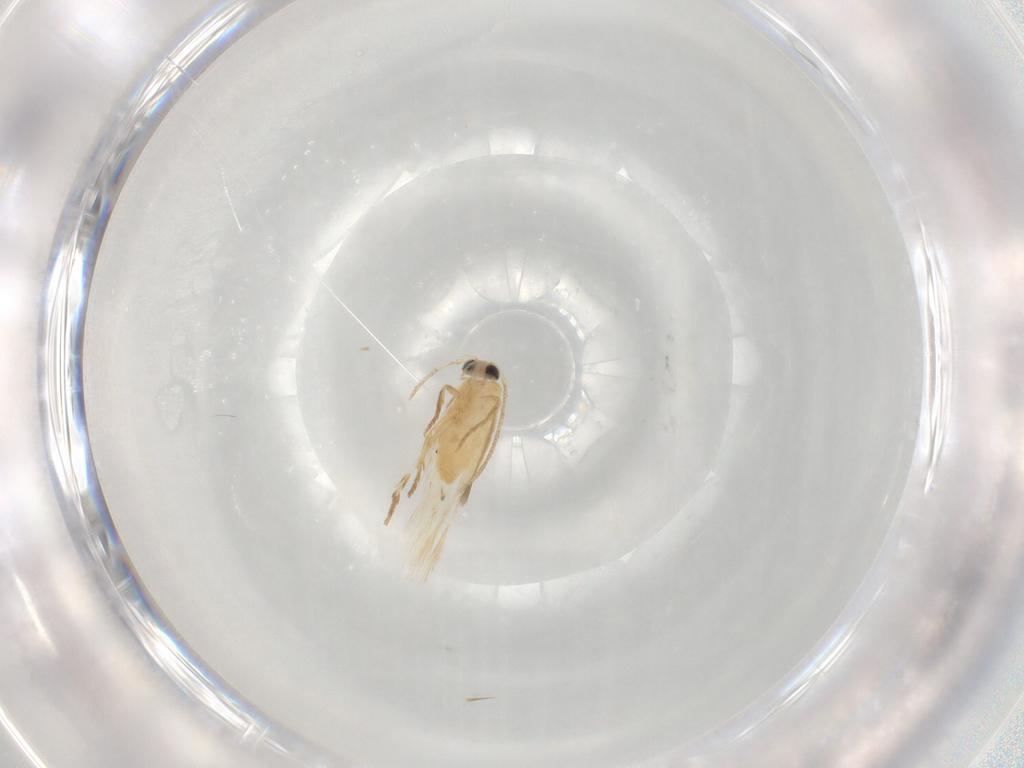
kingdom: Animalia
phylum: Arthropoda
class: Insecta
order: Lepidoptera
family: Nepticulidae
